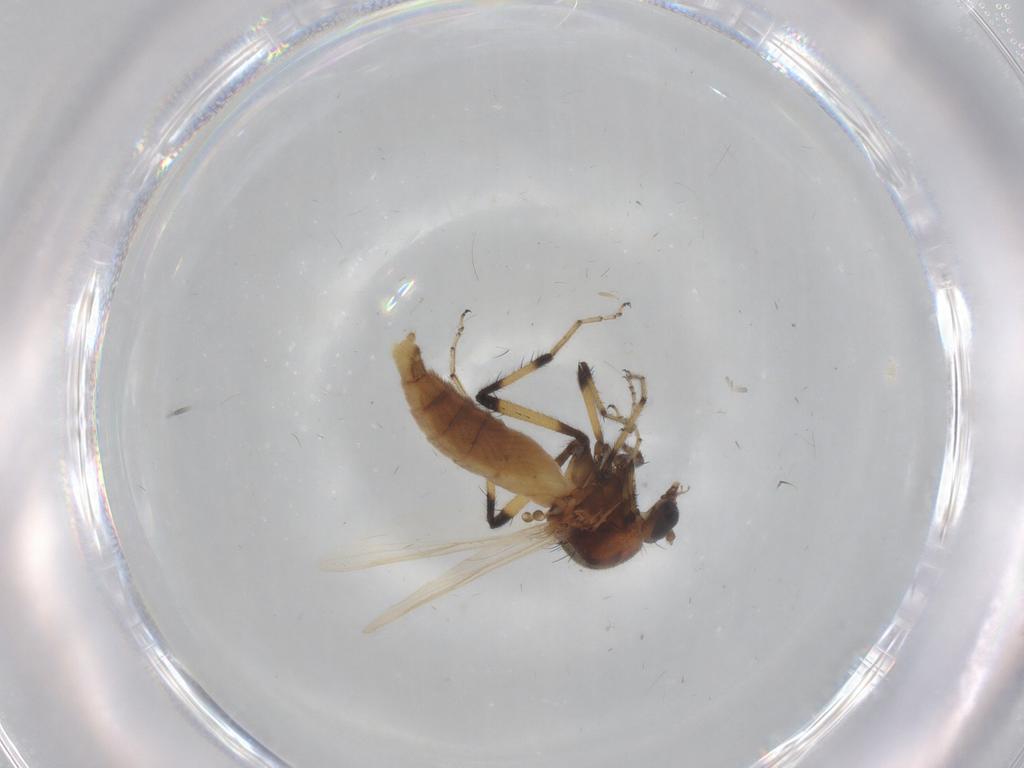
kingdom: Animalia
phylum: Arthropoda
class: Insecta
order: Diptera
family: Ceratopogonidae
